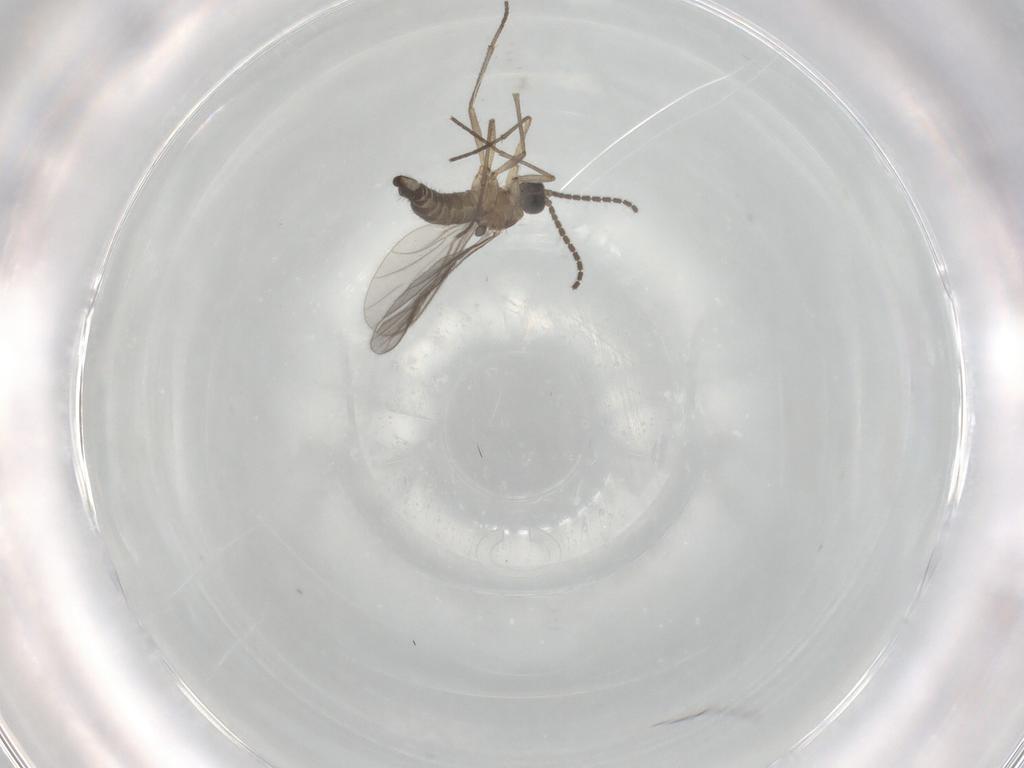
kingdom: Animalia
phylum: Arthropoda
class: Insecta
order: Diptera
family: Sciaridae
